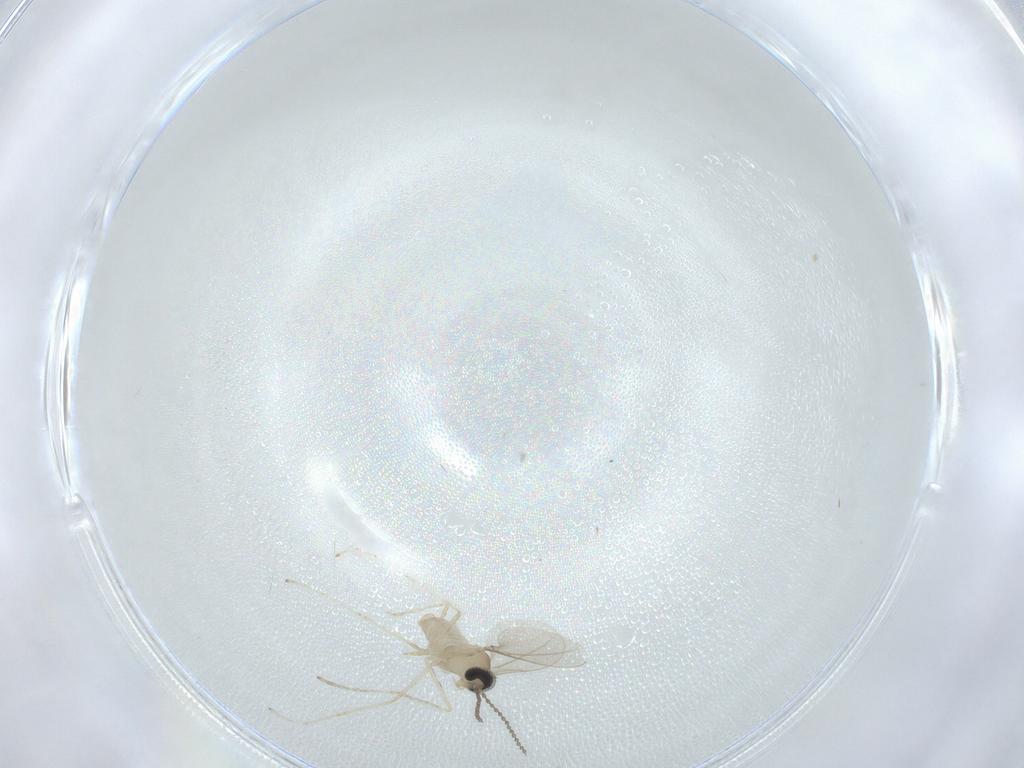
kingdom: Animalia
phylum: Arthropoda
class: Insecta
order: Diptera
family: Cecidomyiidae
